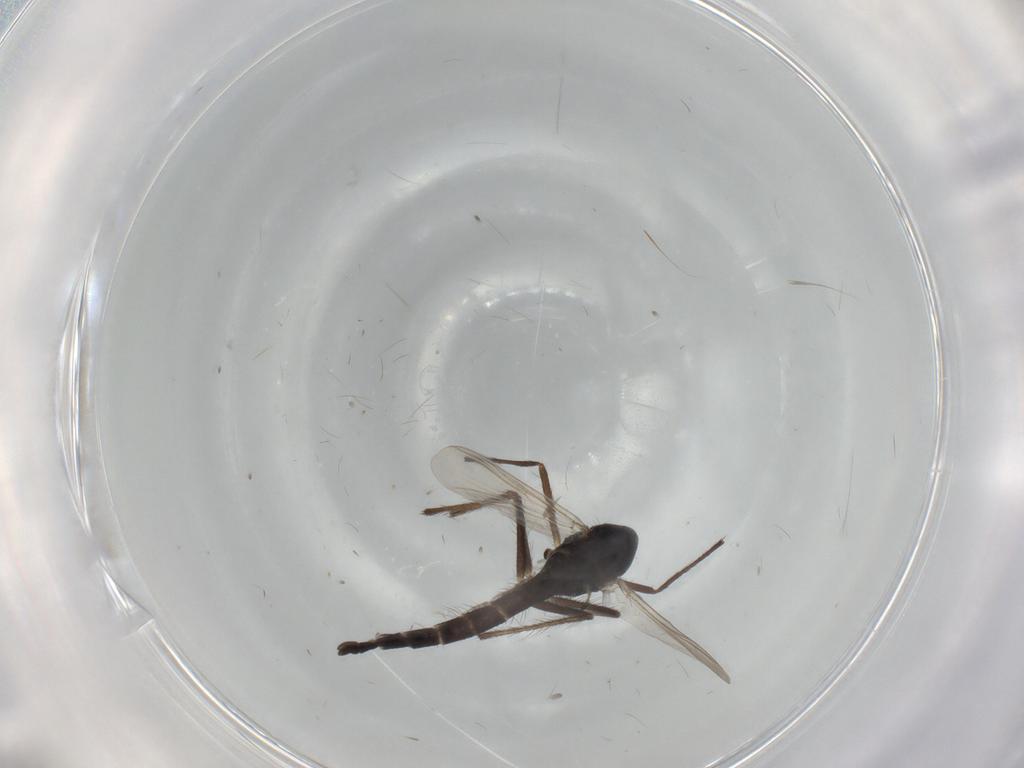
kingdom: Animalia
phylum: Arthropoda
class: Insecta
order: Diptera
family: Chironomidae
